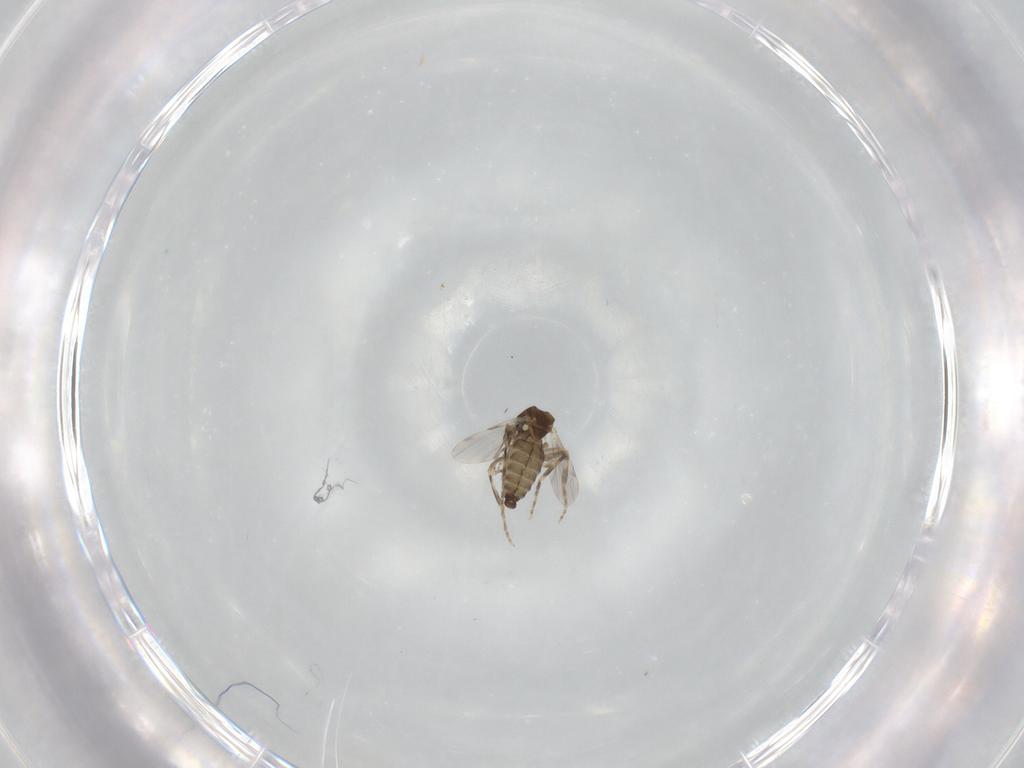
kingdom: Animalia
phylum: Arthropoda
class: Insecta
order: Diptera
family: Ceratopogonidae
